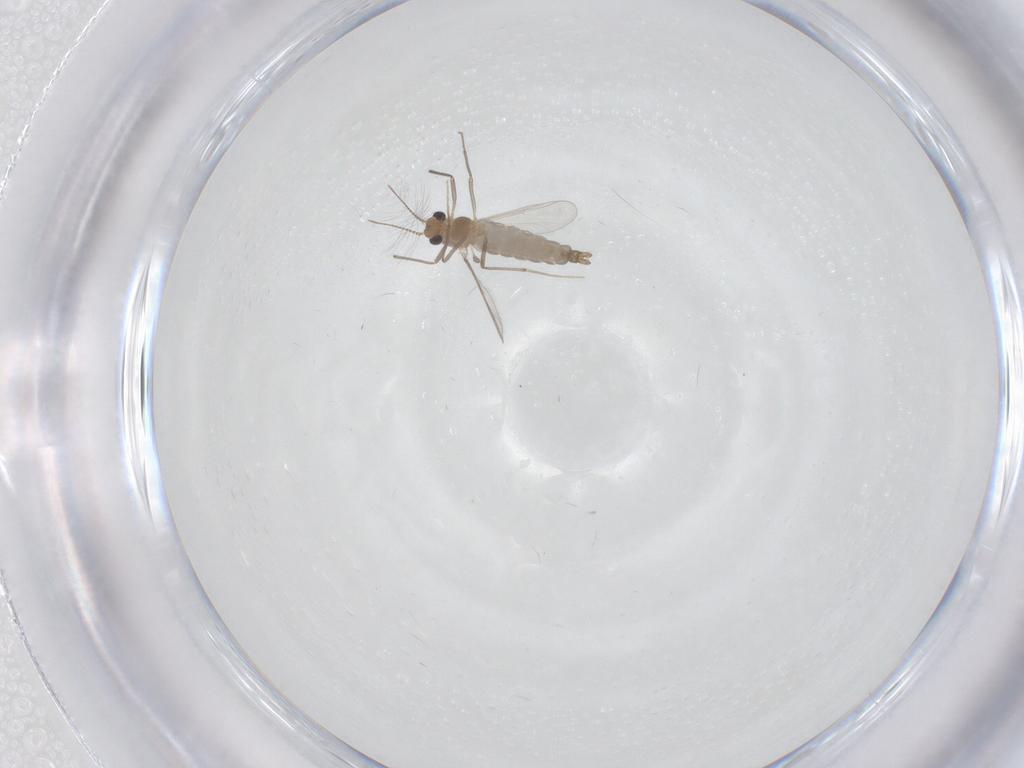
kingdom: Animalia
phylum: Arthropoda
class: Insecta
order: Diptera
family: Chironomidae
